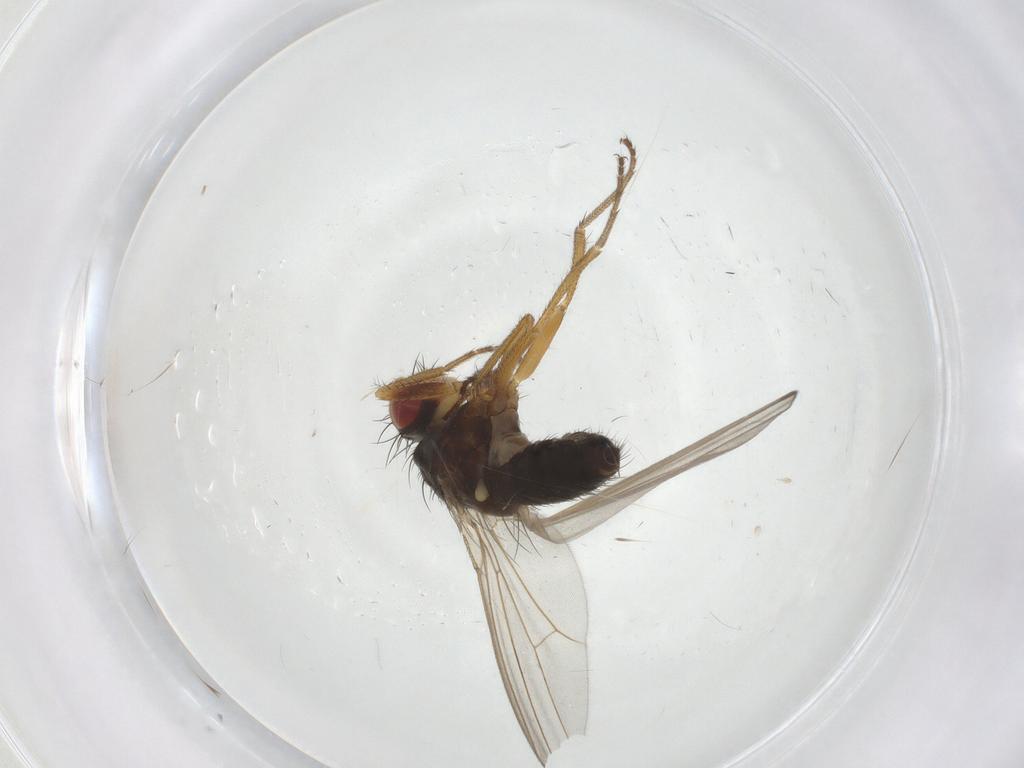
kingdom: Animalia
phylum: Arthropoda
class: Insecta
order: Diptera
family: Drosophilidae
